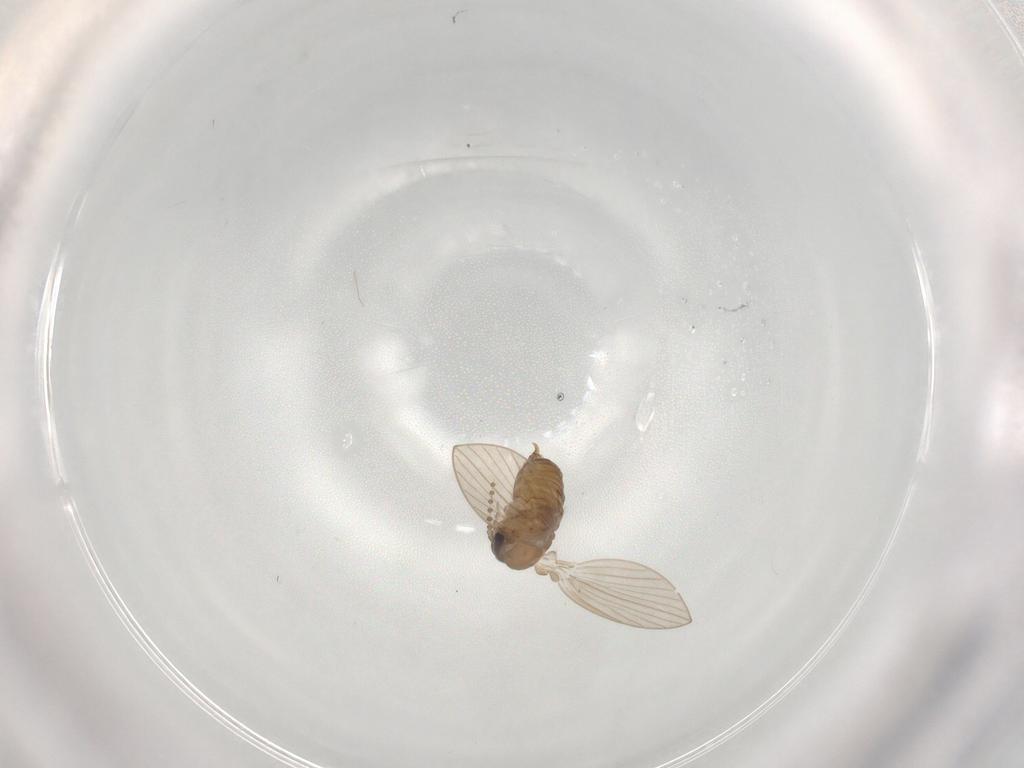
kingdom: Animalia
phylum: Arthropoda
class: Insecta
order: Diptera
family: Psychodidae
